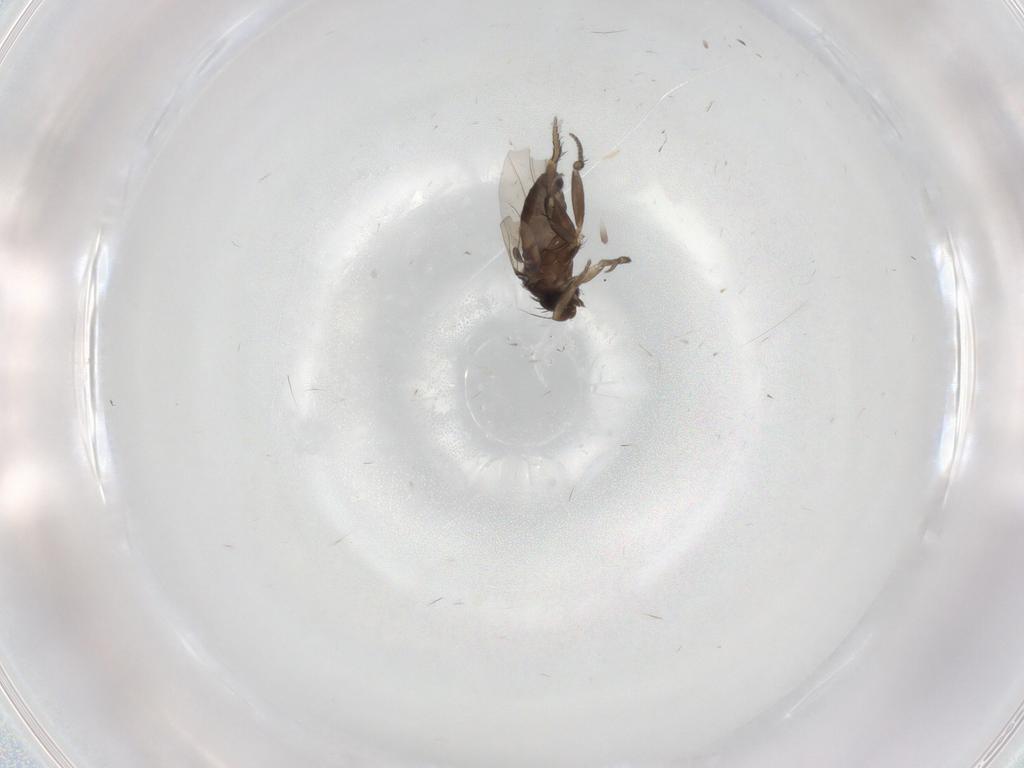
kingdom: Animalia
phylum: Arthropoda
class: Insecta
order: Diptera
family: Phoridae
